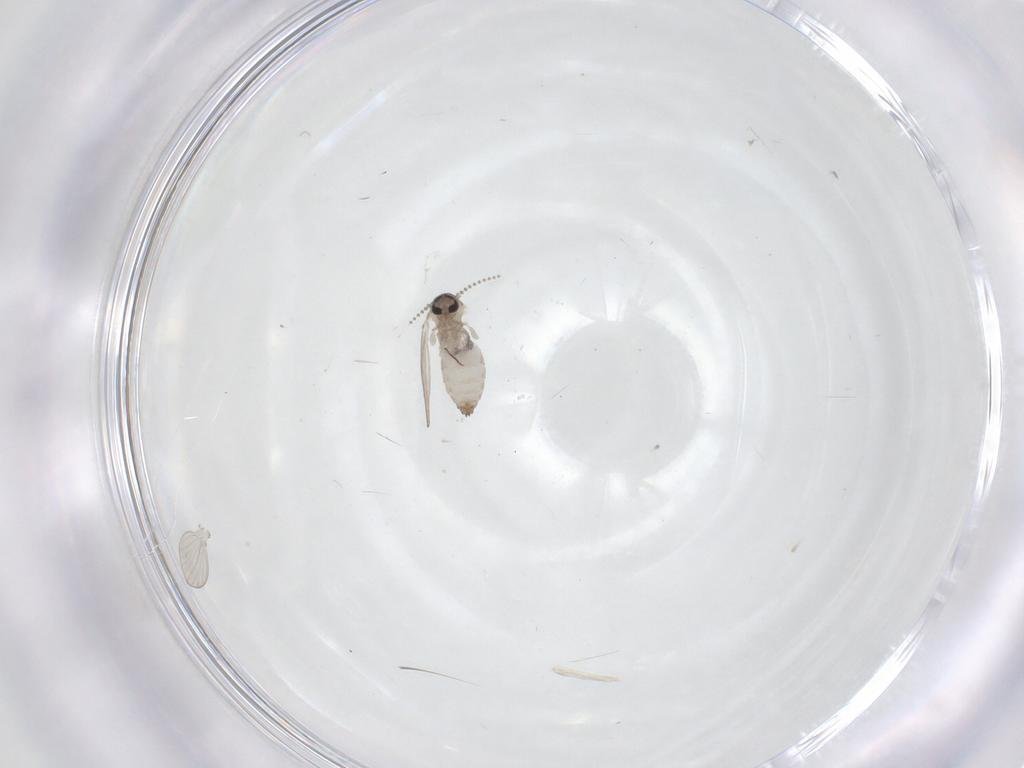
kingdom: Animalia
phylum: Arthropoda
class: Insecta
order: Diptera
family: Psychodidae
